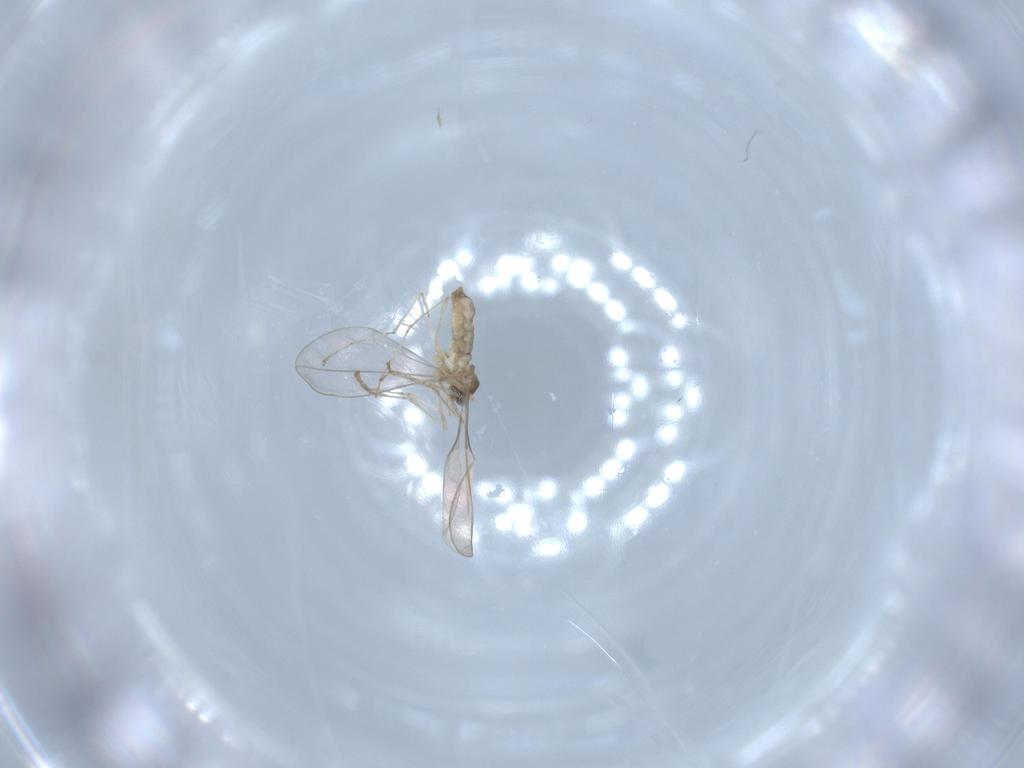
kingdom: Animalia
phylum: Arthropoda
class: Insecta
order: Diptera
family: Cecidomyiidae
